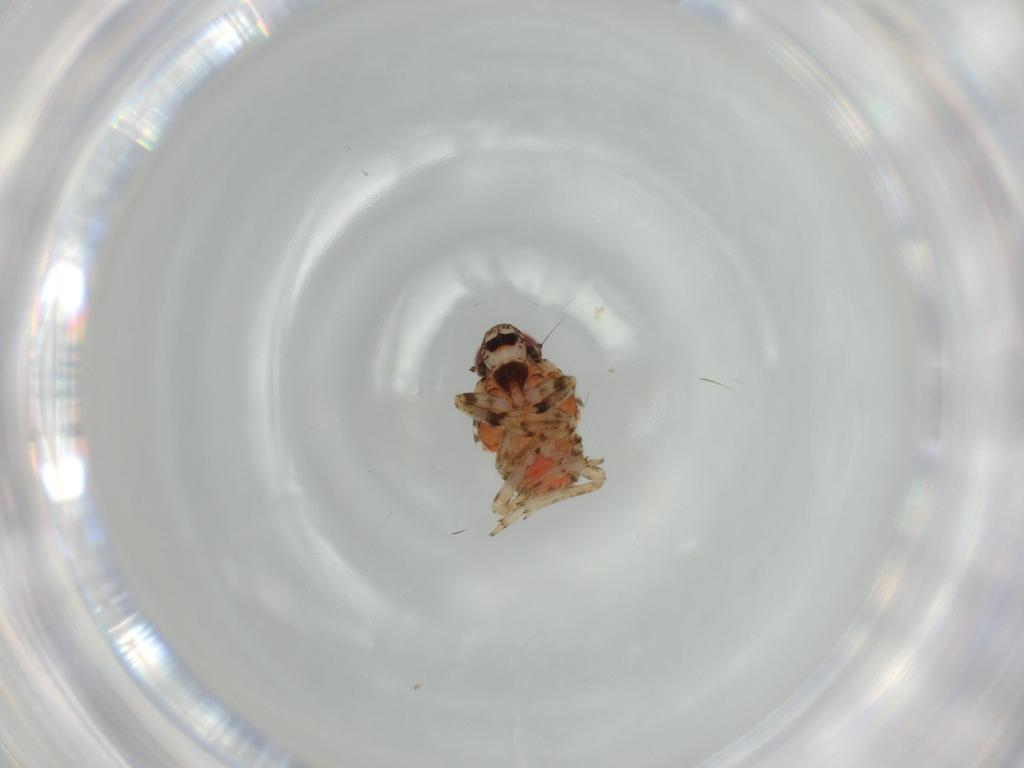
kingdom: Animalia
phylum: Arthropoda
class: Insecta
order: Hemiptera
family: Issidae
